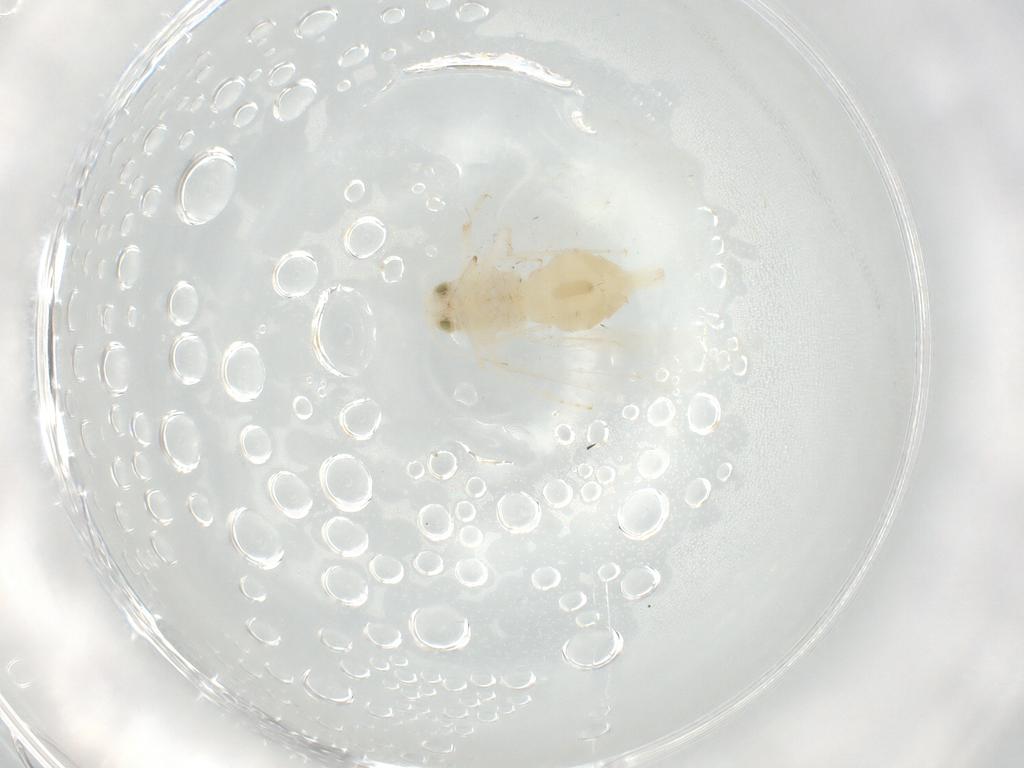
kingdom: Animalia
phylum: Arthropoda
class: Insecta
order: Hemiptera
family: Aleyrodidae
